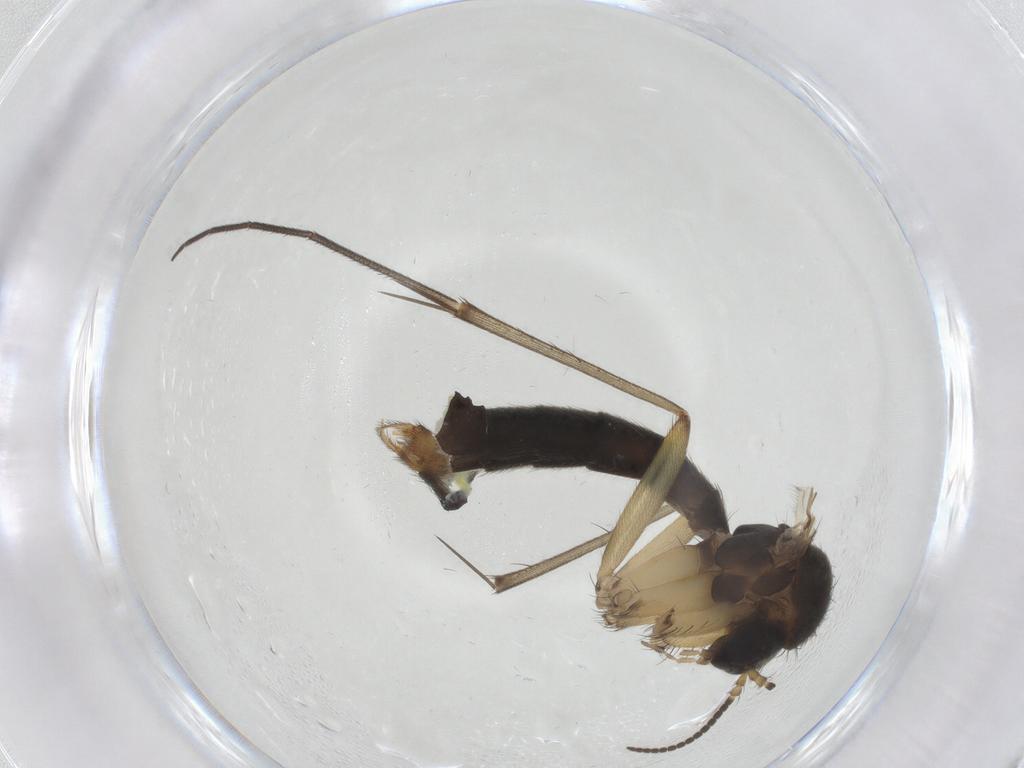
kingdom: Animalia
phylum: Arthropoda
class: Insecta
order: Diptera
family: Mycetophilidae
